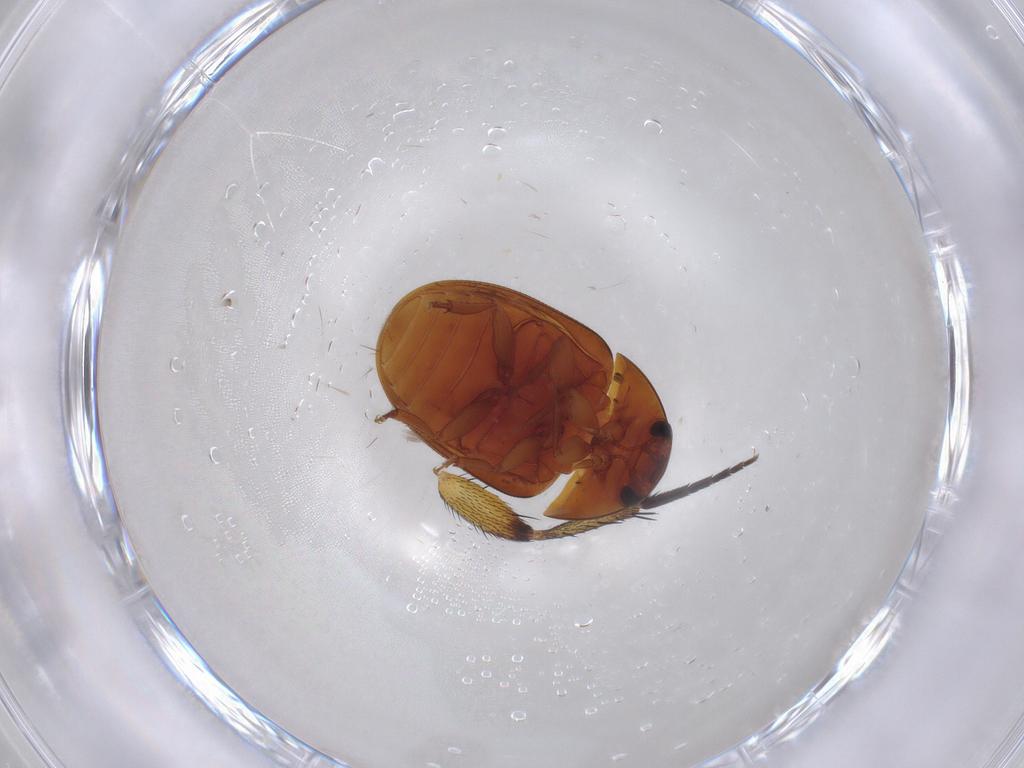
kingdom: Animalia
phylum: Arthropoda
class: Insecta
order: Coleoptera
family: Phalacridae
